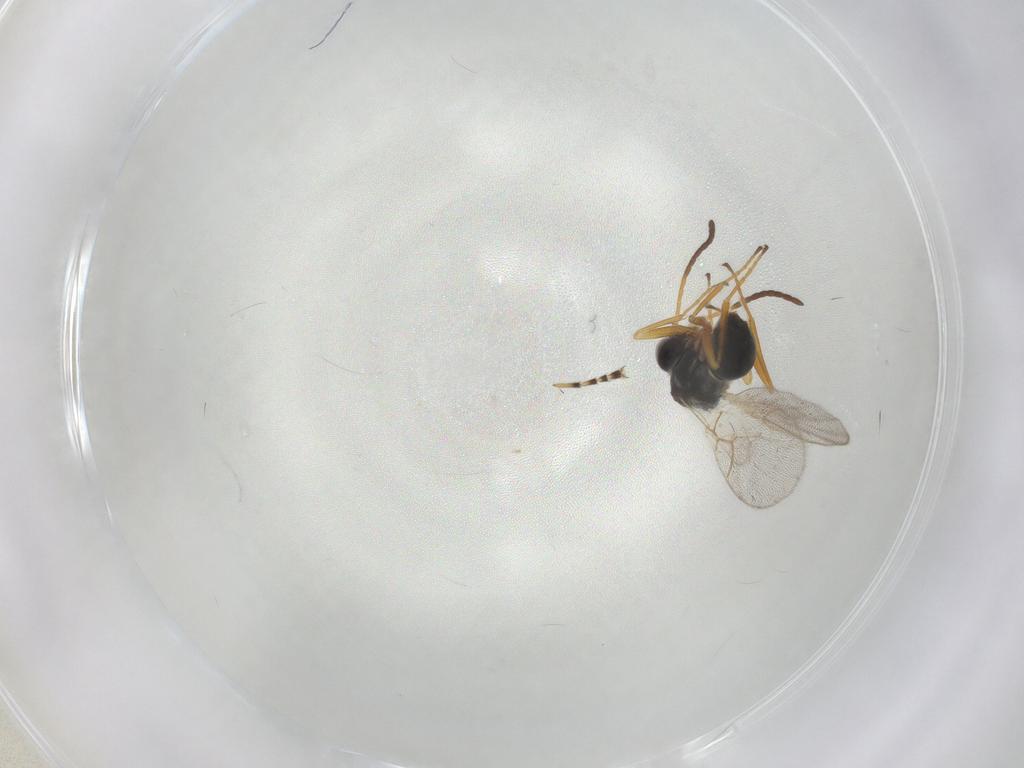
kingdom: Animalia
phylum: Arthropoda
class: Insecta
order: Hymenoptera
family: Figitidae
